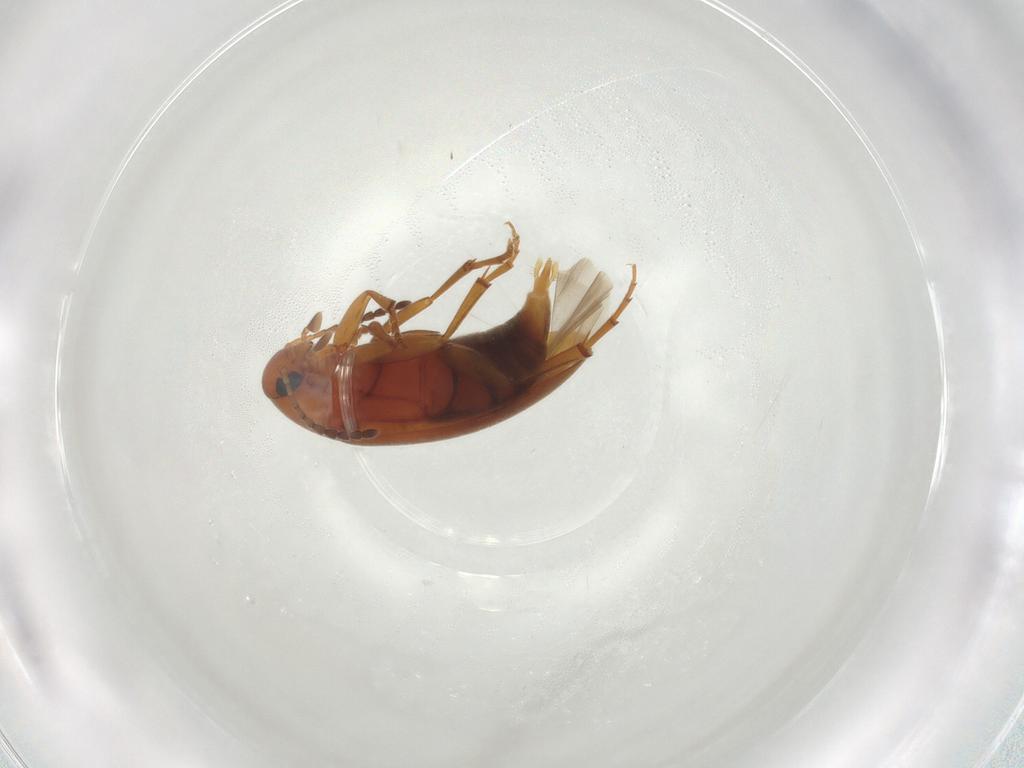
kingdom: Animalia
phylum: Arthropoda
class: Insecta
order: Coleoptera
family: Scraptiidae
